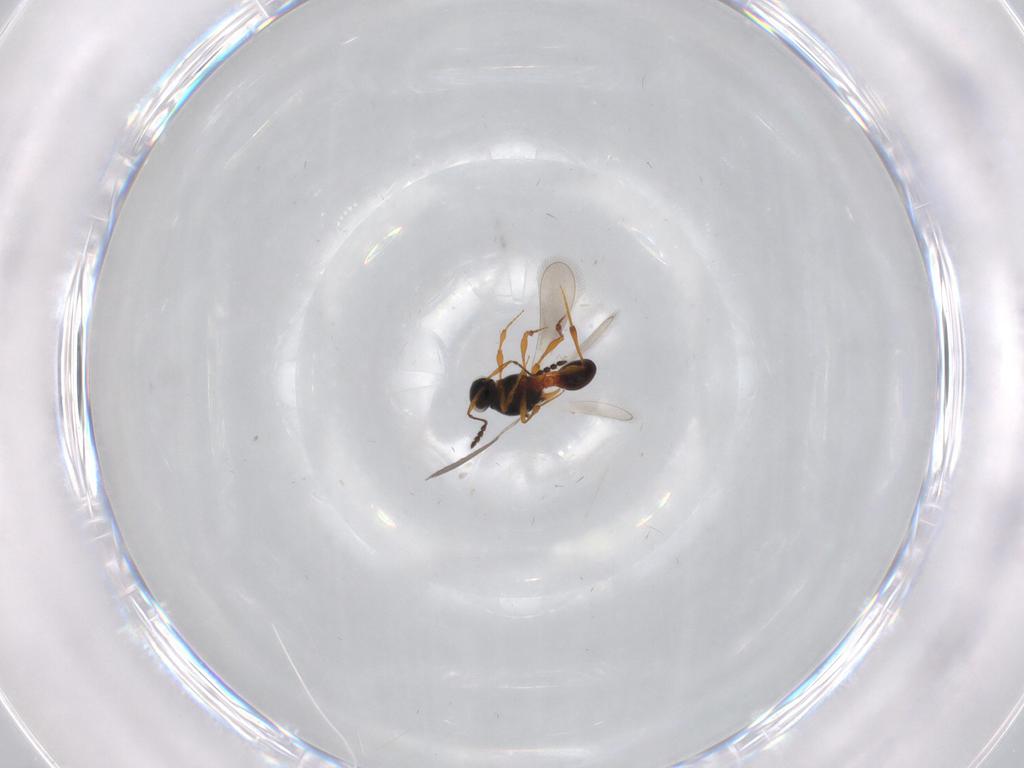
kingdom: Animalia
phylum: Arthropoda
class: Insecta
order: Hymenoptera
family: Platygastridae
